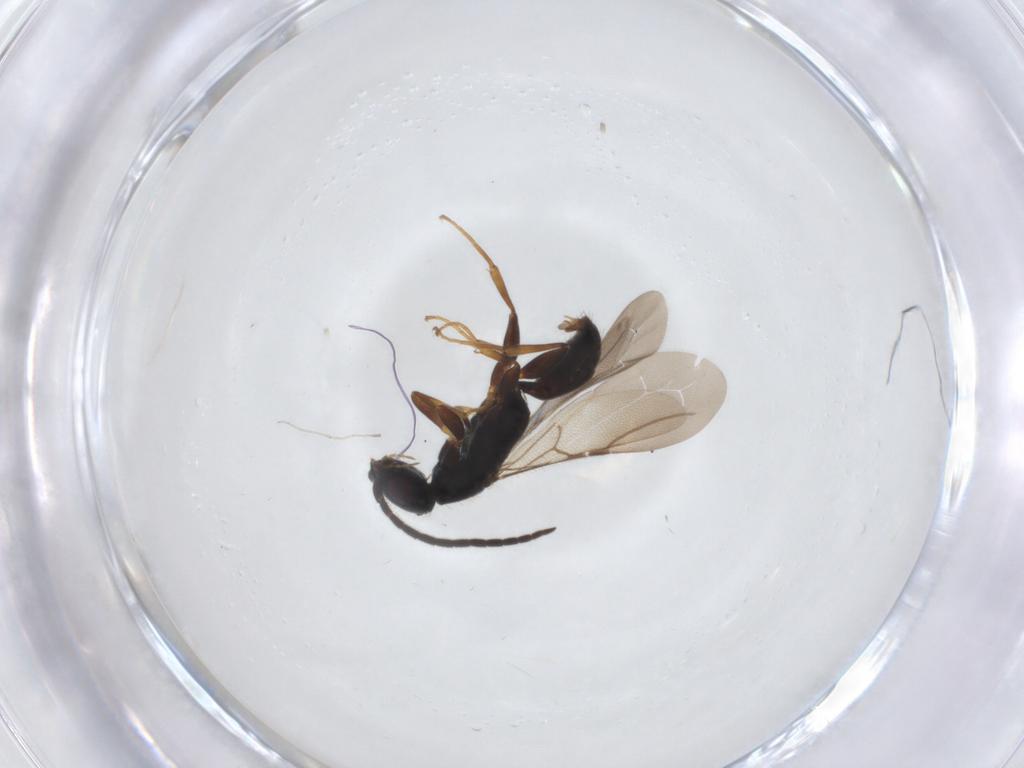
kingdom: Animalia
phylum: Arthropoda
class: Insecta
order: Hymenoptera
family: Bethylidae
